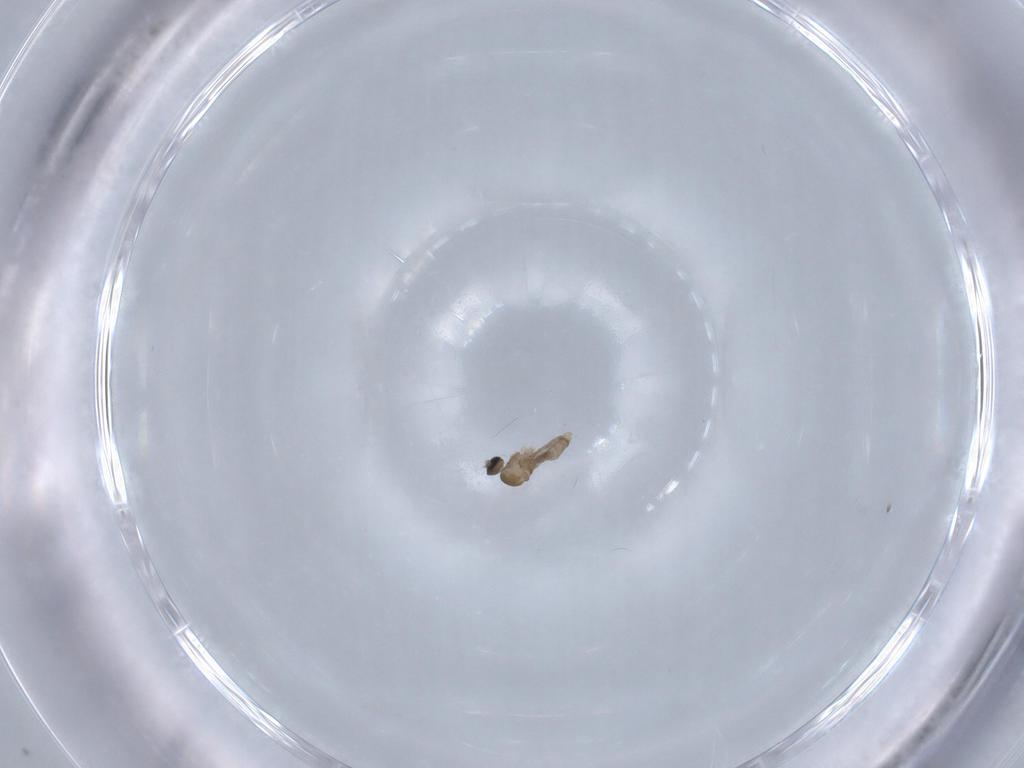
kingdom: Animalia
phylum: Arthropoda
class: Insecta
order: Diptera
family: Cecidomyiidae
